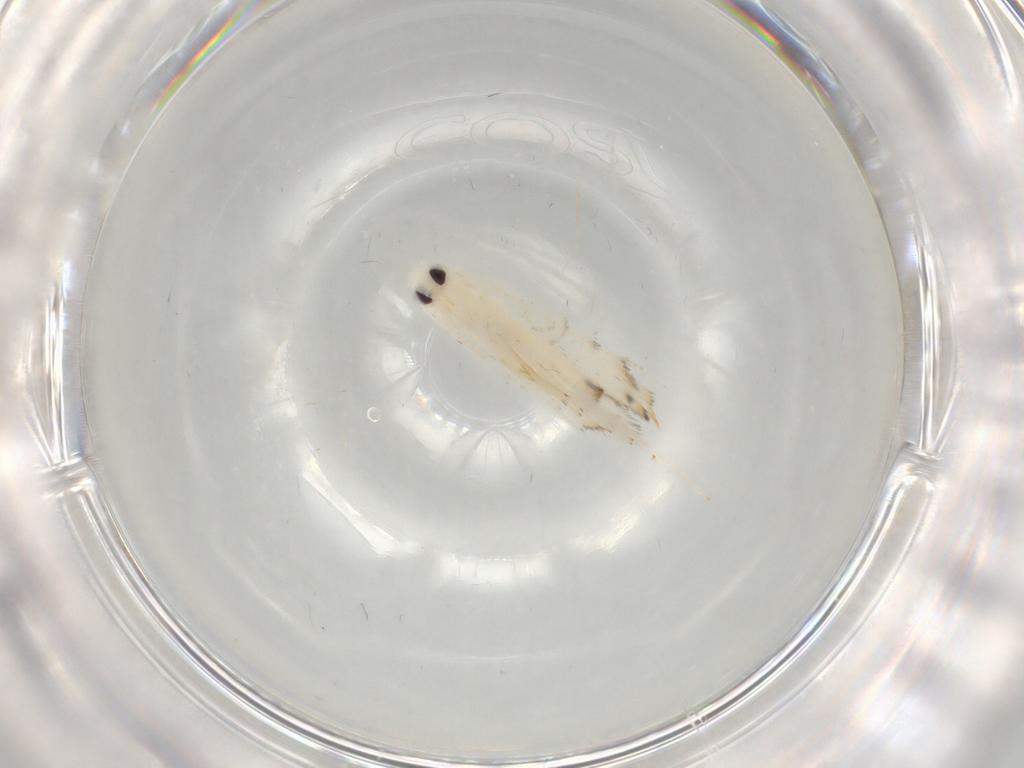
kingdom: Animalia
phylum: Arthropoda
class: Insecta
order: Lepidoptera
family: Gracillariidae
